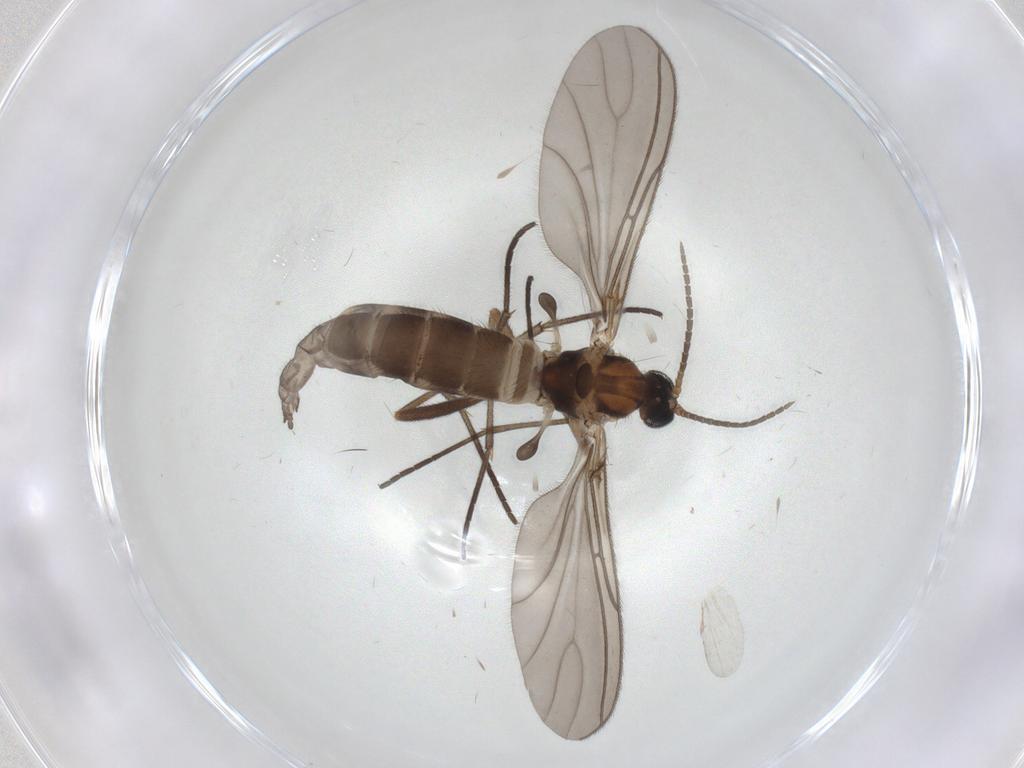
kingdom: Animalia
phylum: Arthropoda
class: Insecta
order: Diptera
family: Sciaridae
